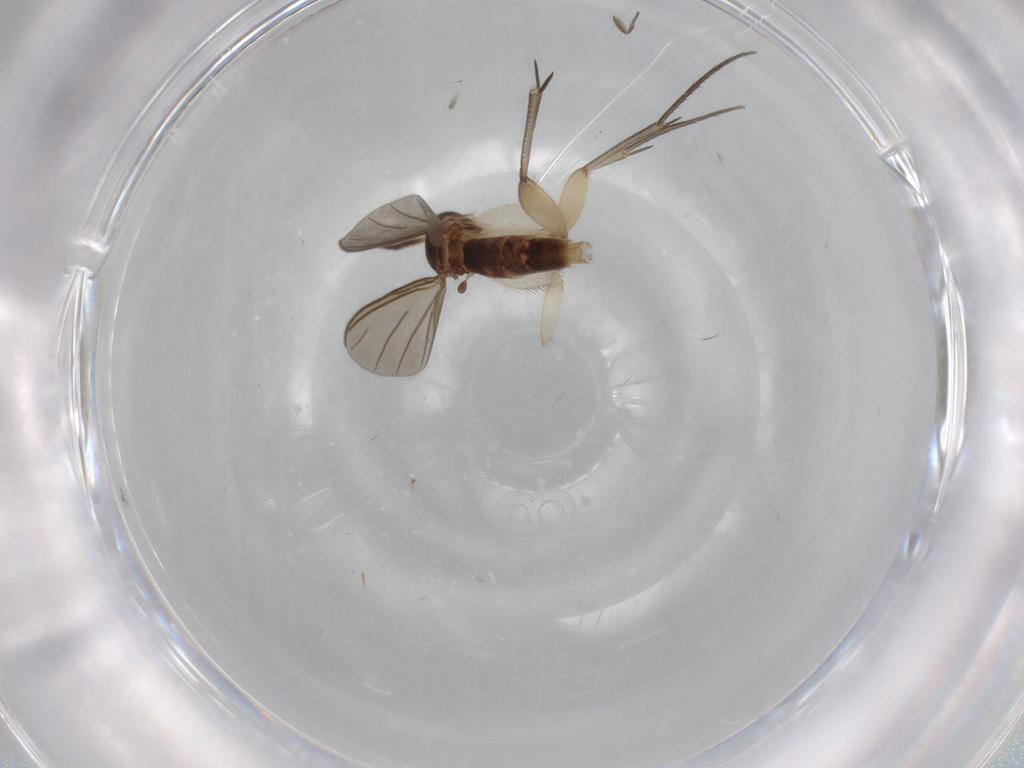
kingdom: Animalia
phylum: Arthropoda
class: Insecta
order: Diptera
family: Mycetophilidae
